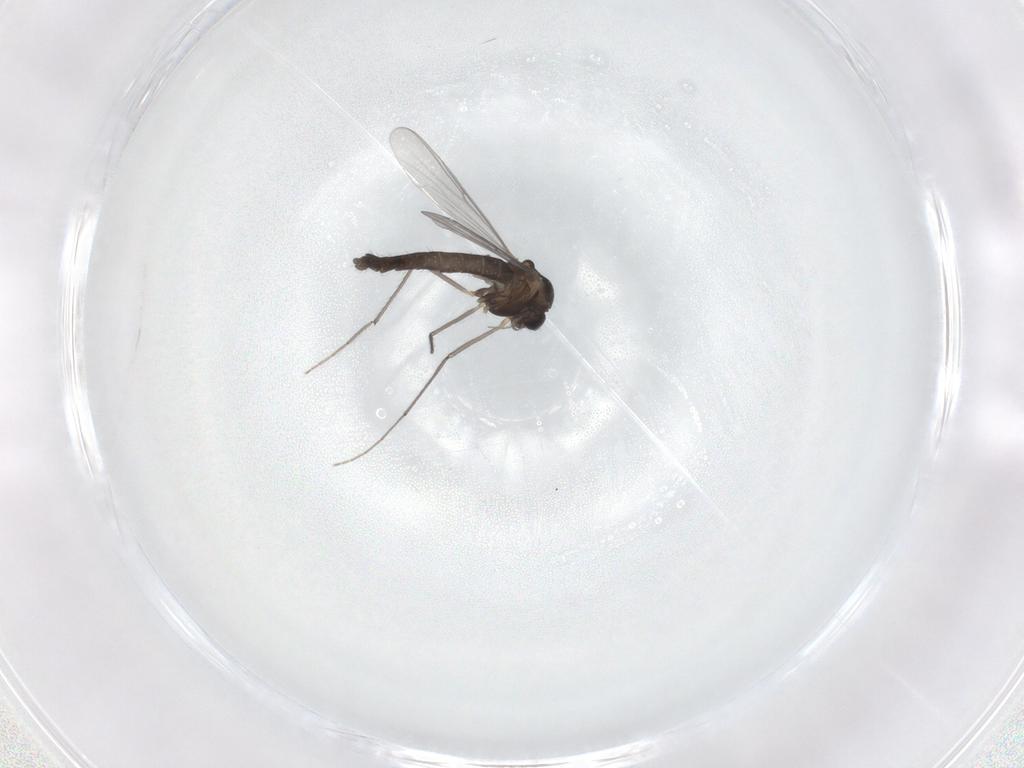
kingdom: Animalia
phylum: Arthropoda
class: Insecta
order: Diptera
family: Chironomidae
